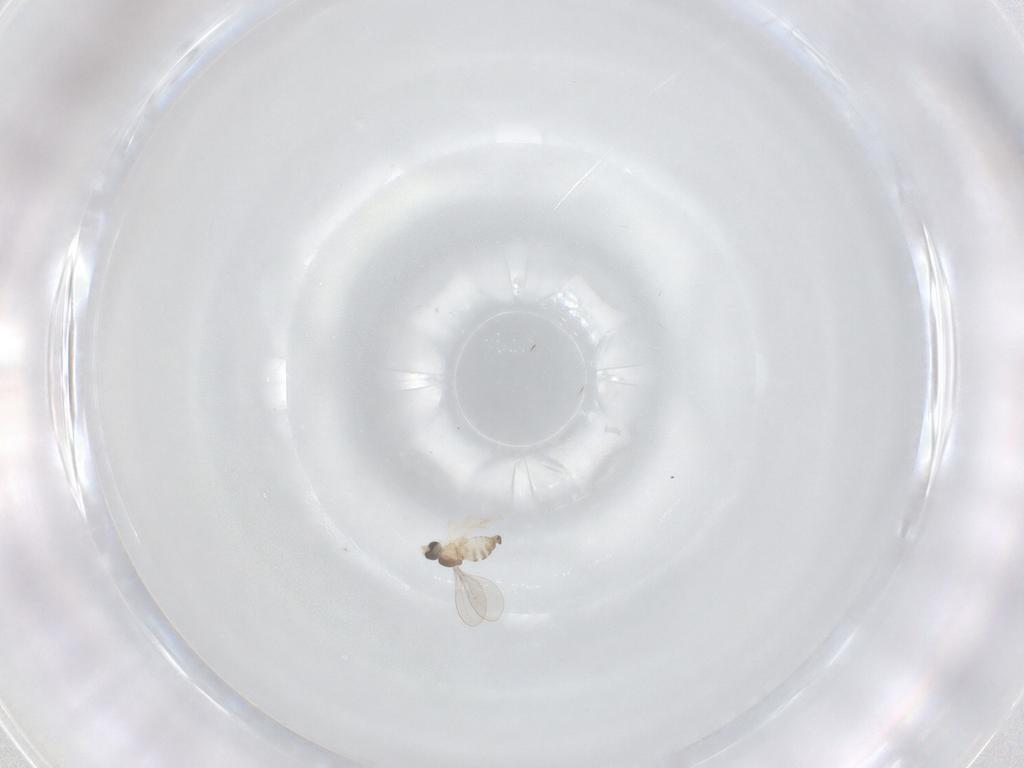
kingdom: Animalia
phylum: Arthropoda
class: Insecta
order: Diptera
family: Cecidomyiidae
